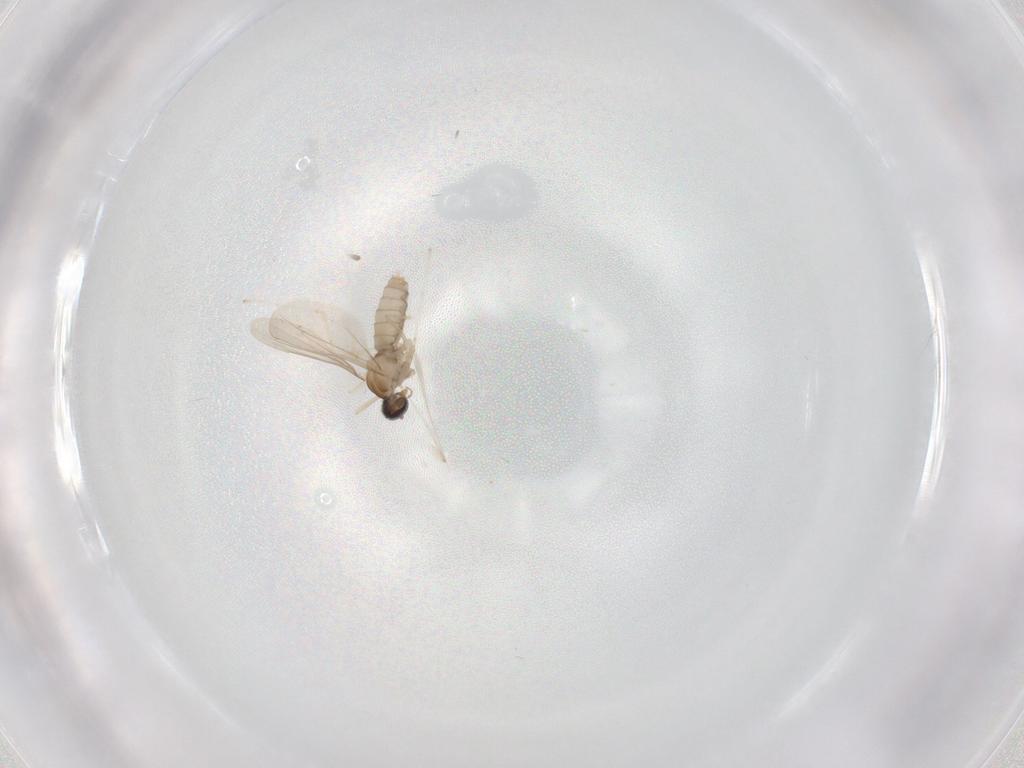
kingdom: Animalia
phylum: Arthropoda
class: Insecta
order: Diptera
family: Cecidomyiidae
